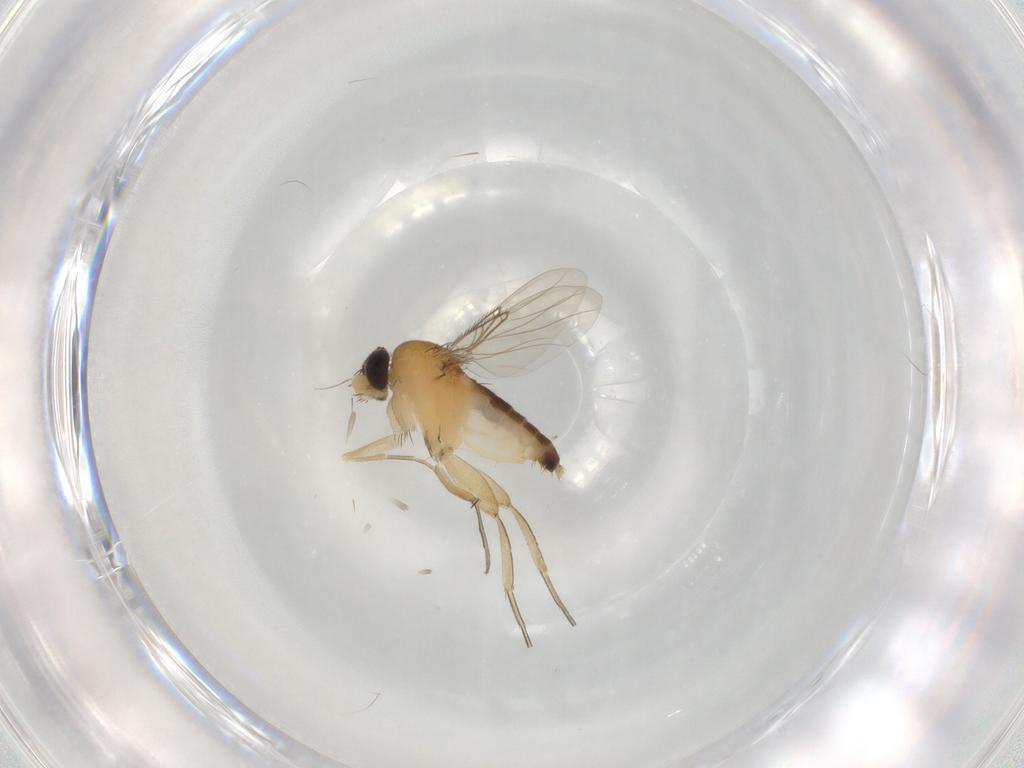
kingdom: Animalia
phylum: Arthropoda
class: Insecta
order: Diptera
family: Phoridae
